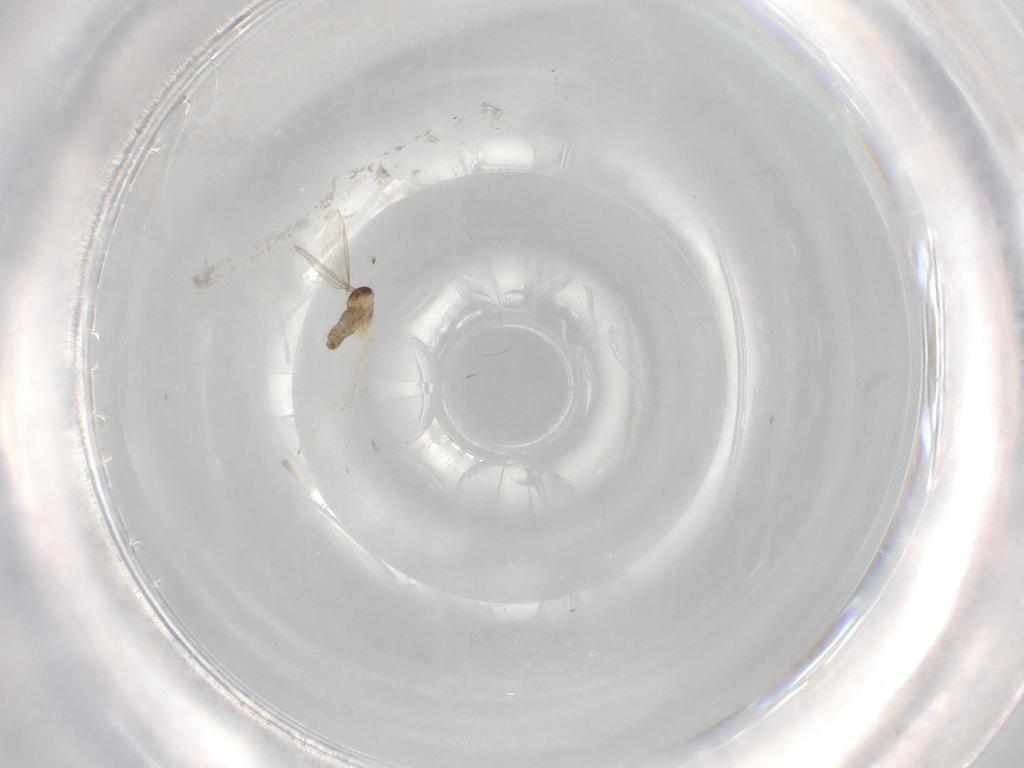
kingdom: Animalia
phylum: Arthropoda
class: Insecta
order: Diptera
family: Cecidomyiidae
